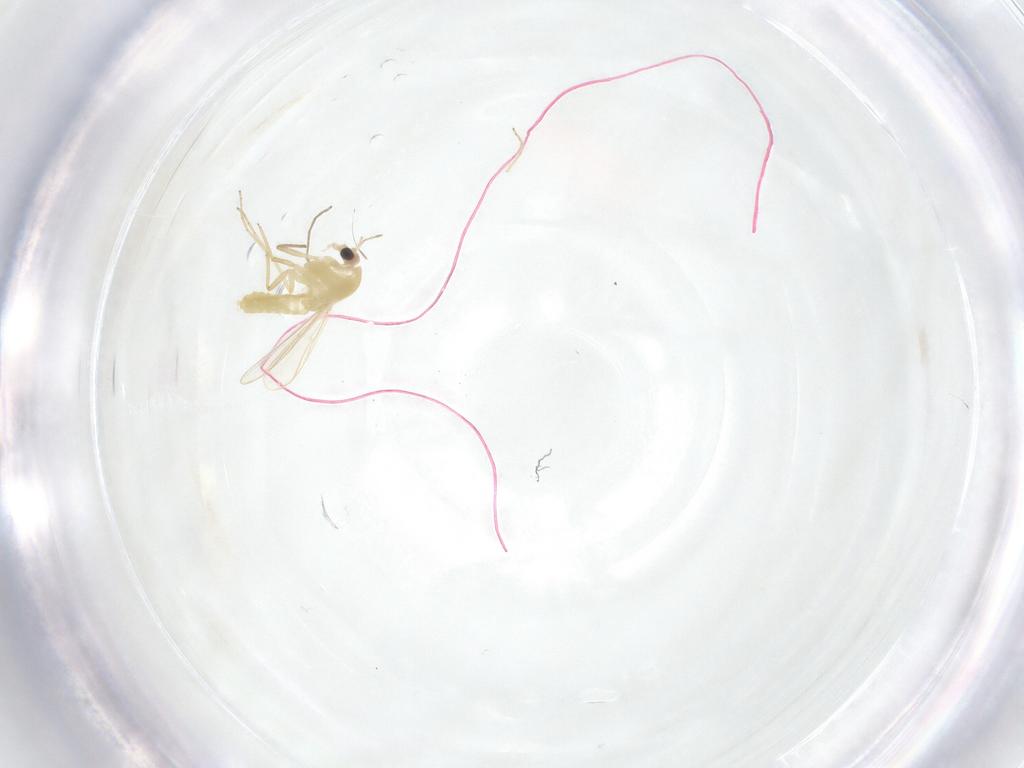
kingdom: Animalia
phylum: Arthropoda
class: Insecta
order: Diptera
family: Chironomidae
